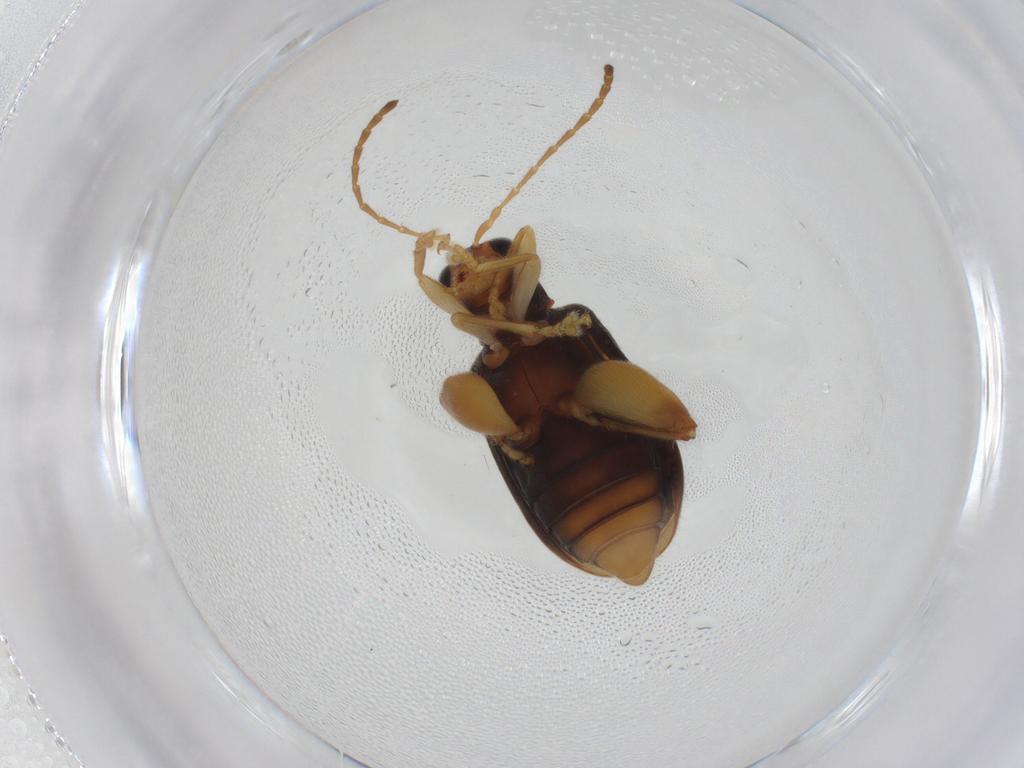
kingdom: Animalia
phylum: Arthropoda
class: Insecta
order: Coleoptera
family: Chrysomelidae
